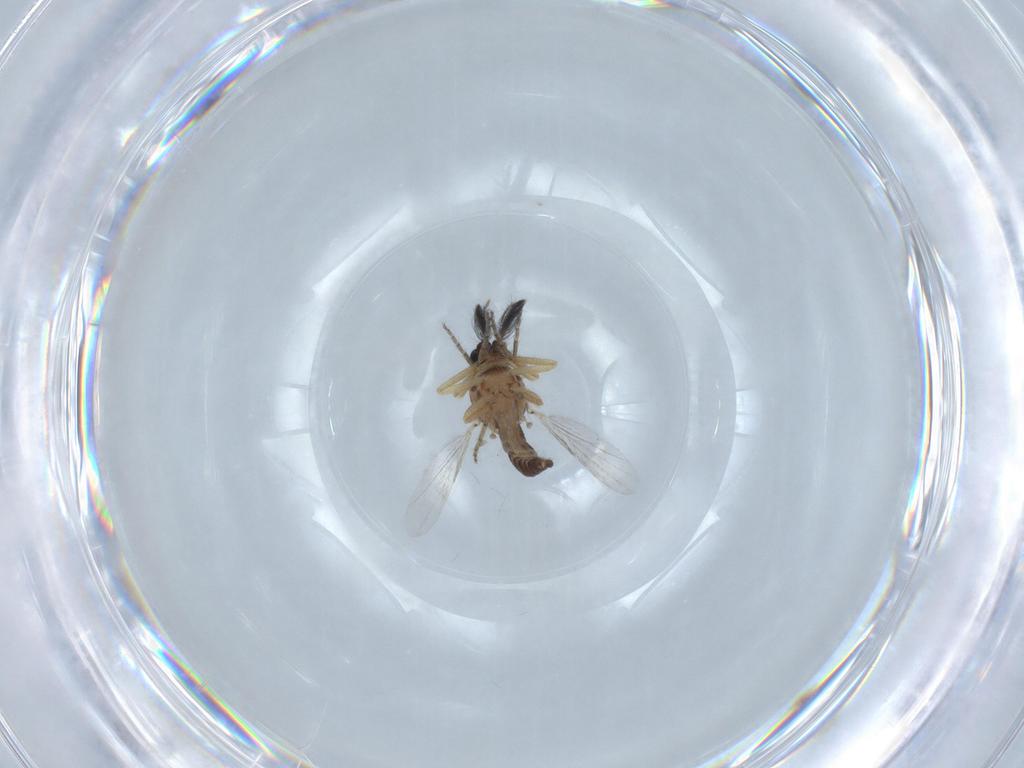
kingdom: Animalia
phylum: Arthropoda
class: Insecta
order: Diptera
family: Ceratopogonidae
